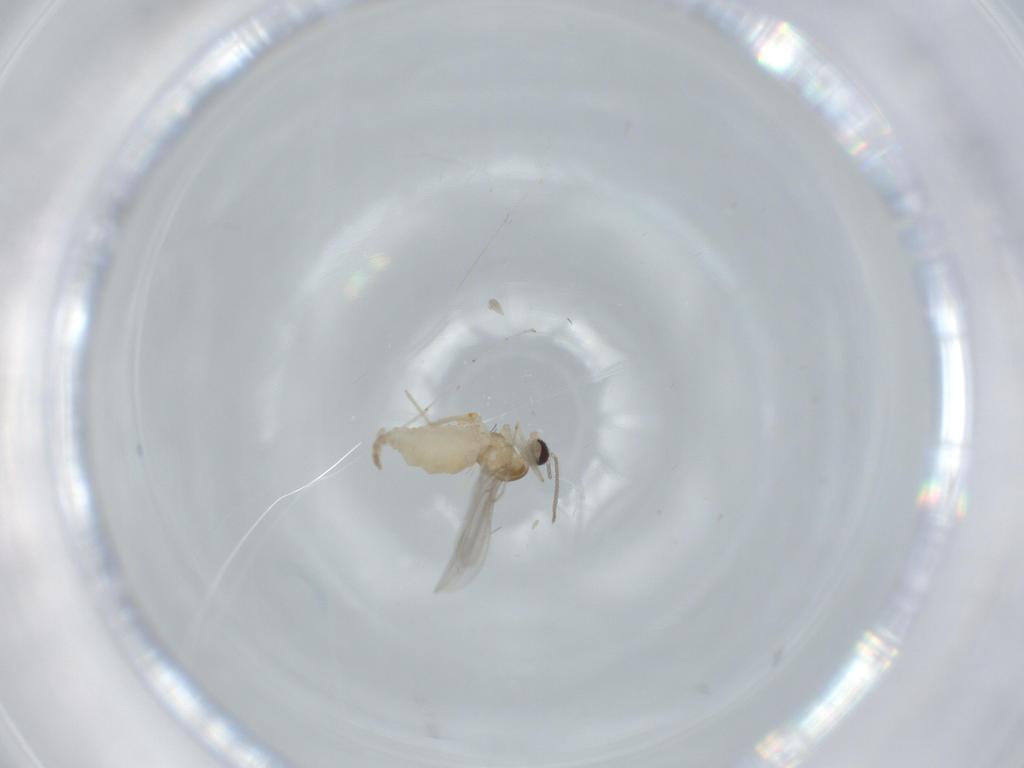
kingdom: Animalia
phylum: Arthropoda
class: Insecta
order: Diptera
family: Cecidomyiidae
